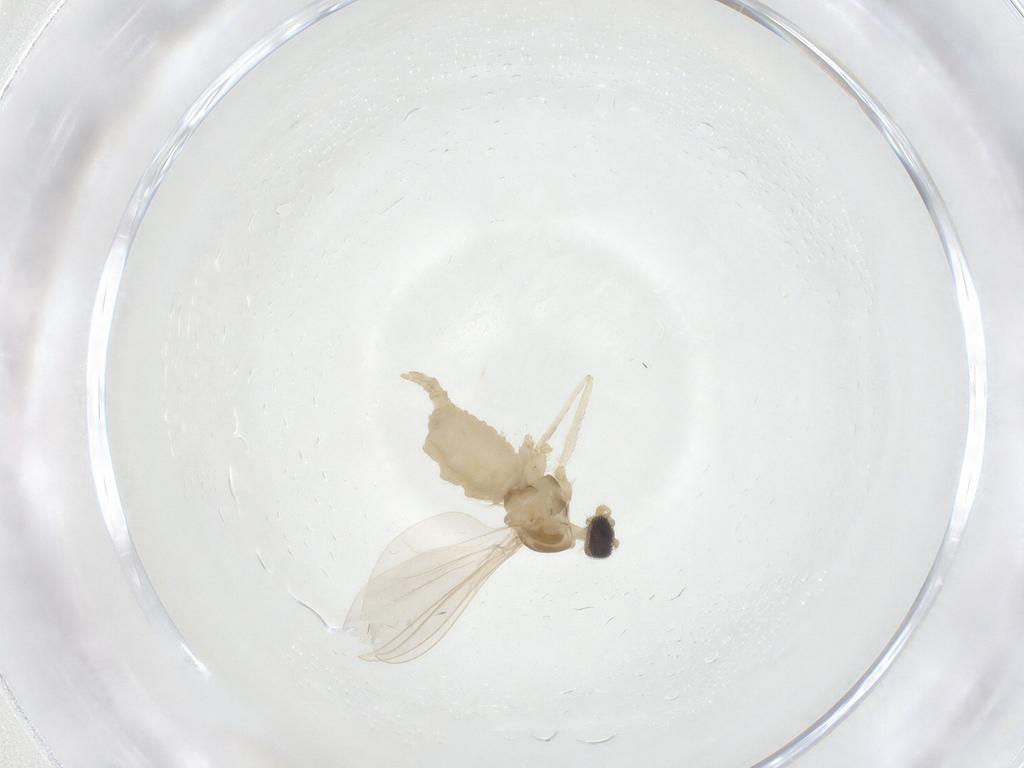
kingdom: Animalia
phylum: Arthropoda
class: Insecta
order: Diptera
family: Cecidomyiidae
